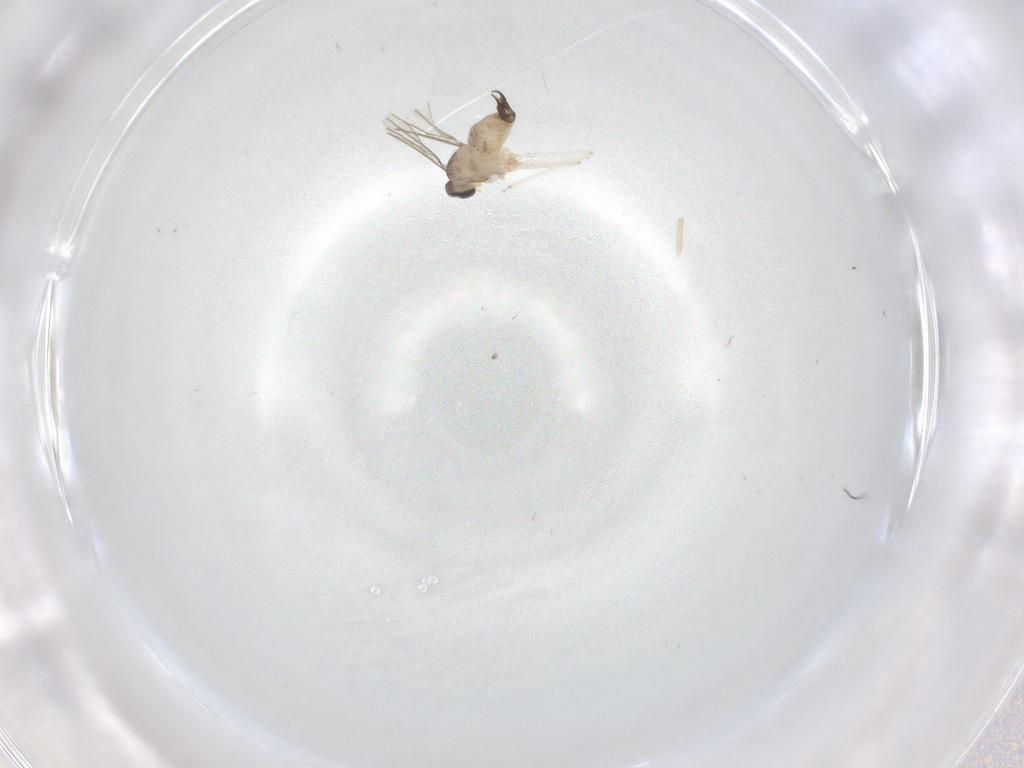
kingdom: Animalia
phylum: Arthropoda
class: Insecta
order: Diptera
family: Cecidomyiidae
